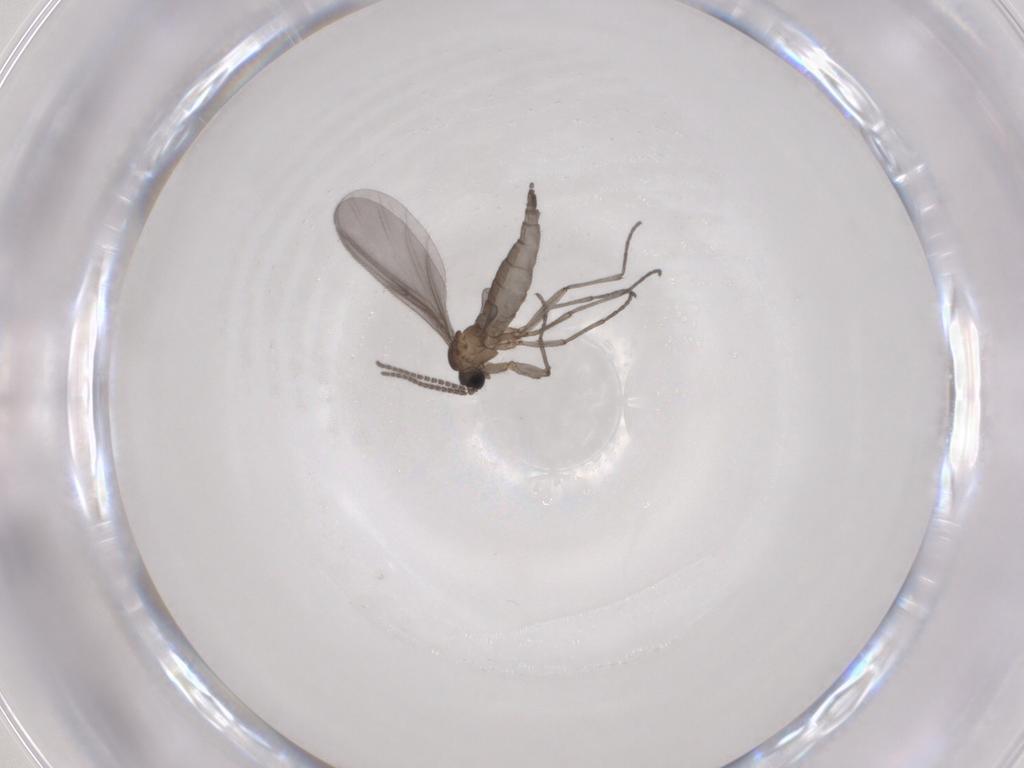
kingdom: Animalia
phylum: Arthropoda
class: Insecta
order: Diptera
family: Sciaridae
